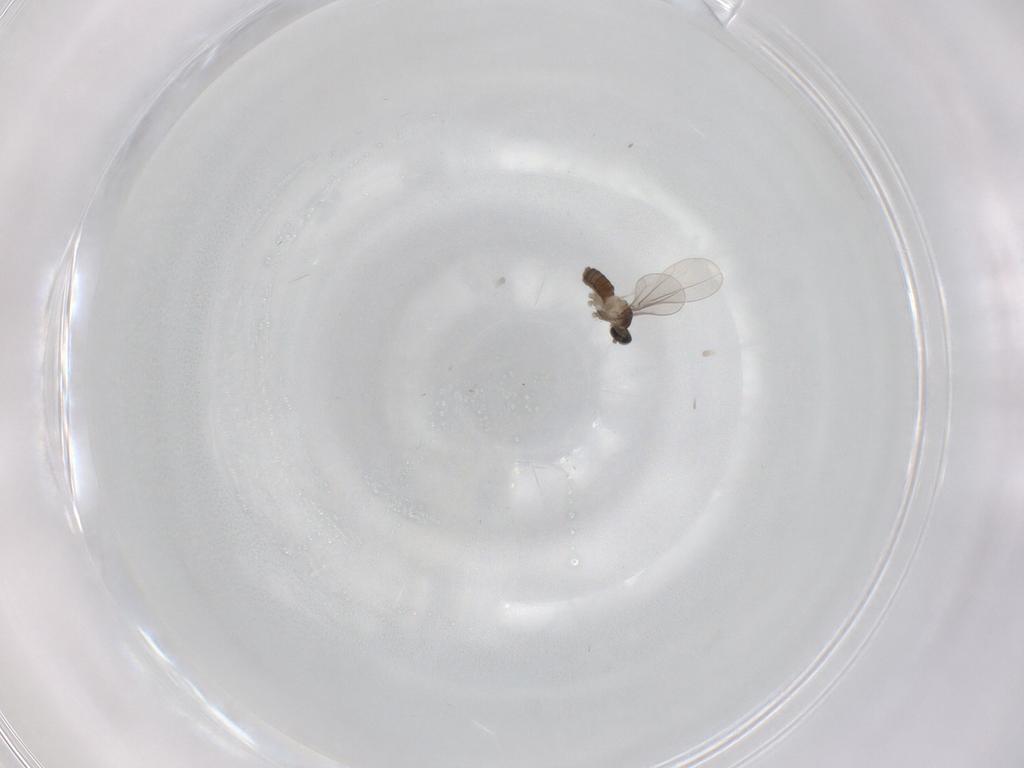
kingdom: Animalia
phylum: Arthropoda
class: Insecta
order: Diptera
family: Cecidomyiidae
